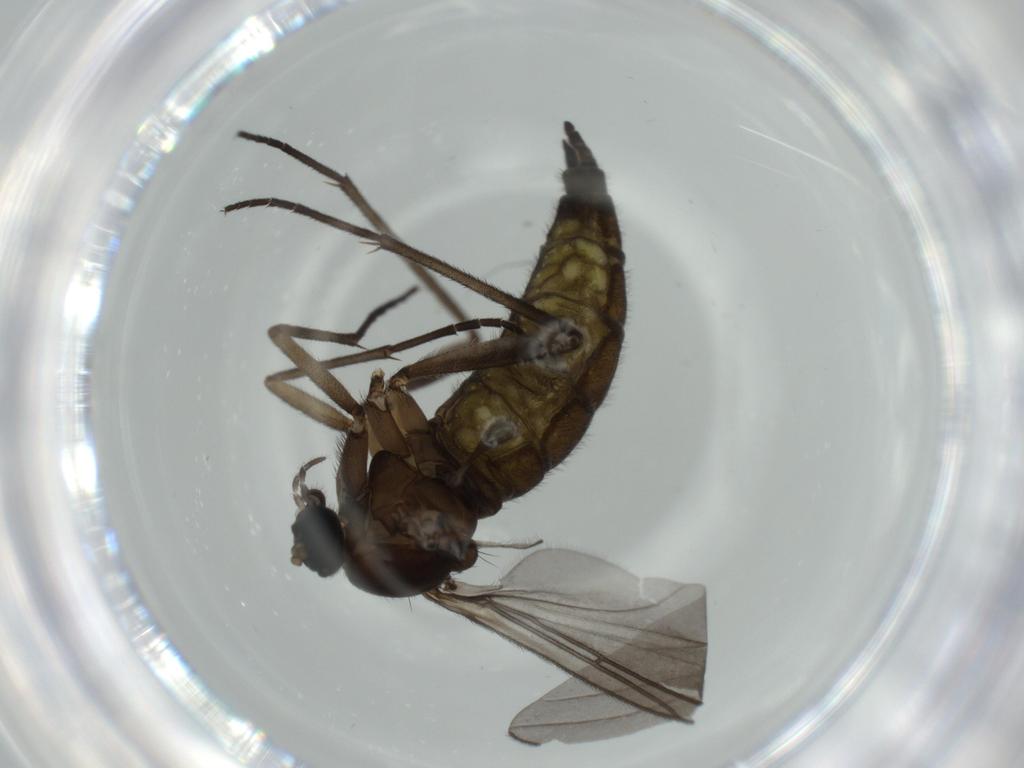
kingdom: Animalia
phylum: Arthropoda
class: Insecta
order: Diptera
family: Sciaridae
